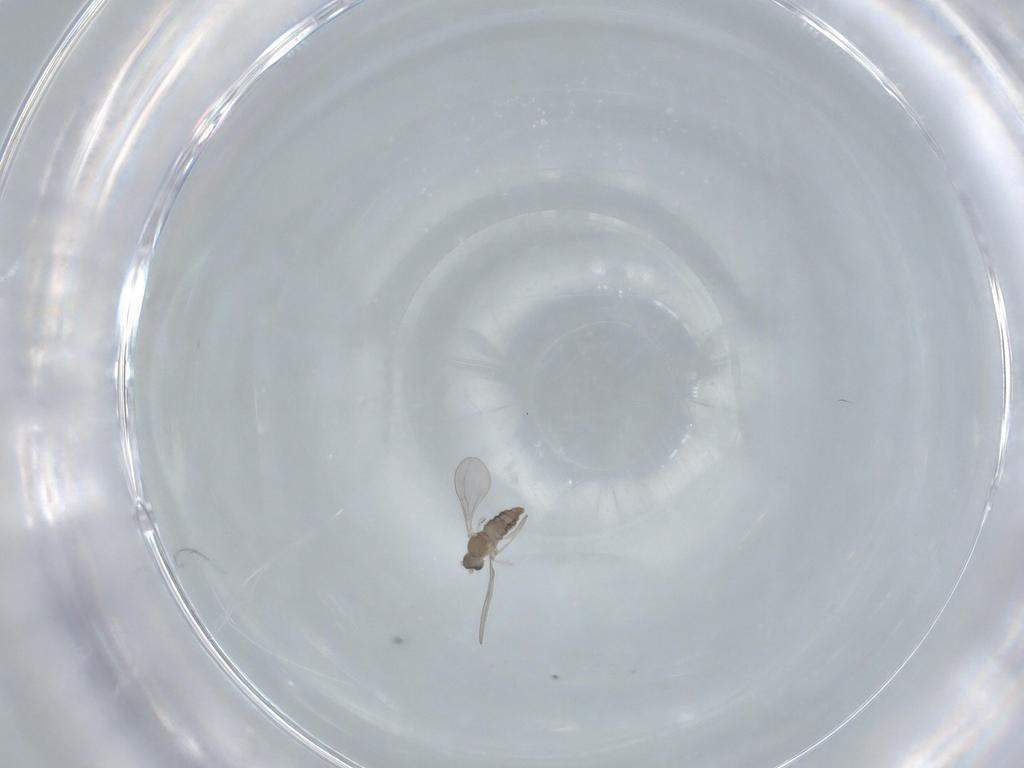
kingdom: Animalia
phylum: Arthropoda
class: Insecta
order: Diptera
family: Cecidomyiidae
